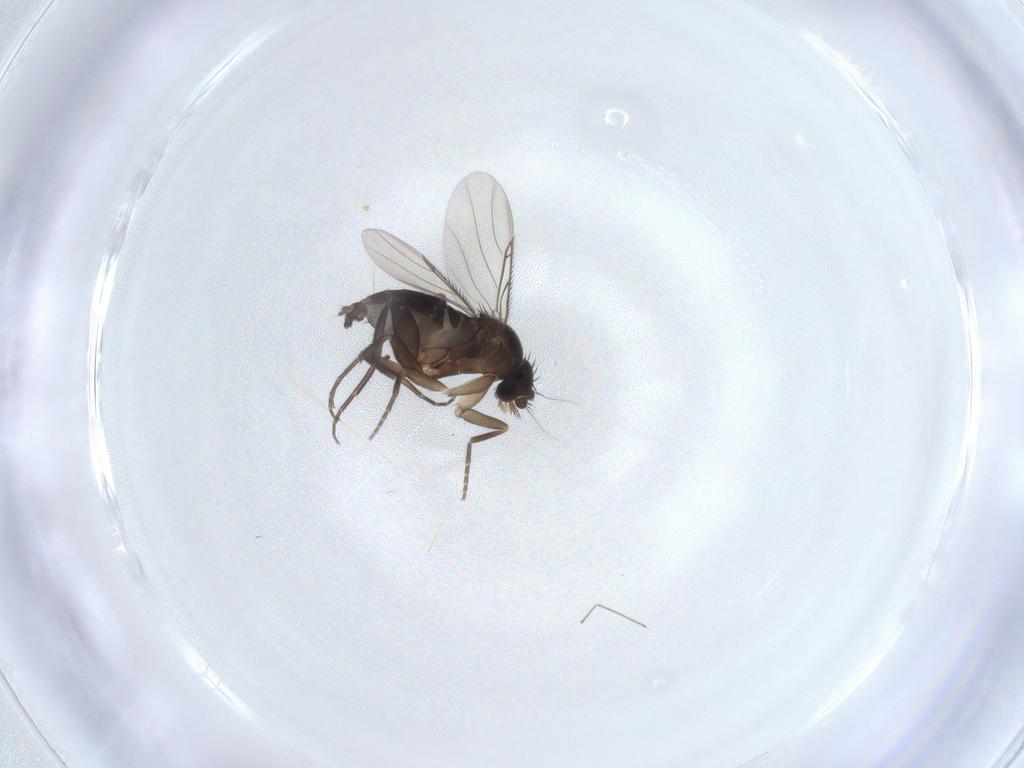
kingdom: Animalia
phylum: Arthropoda
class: Insecta
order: Diptera
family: Phoridae
